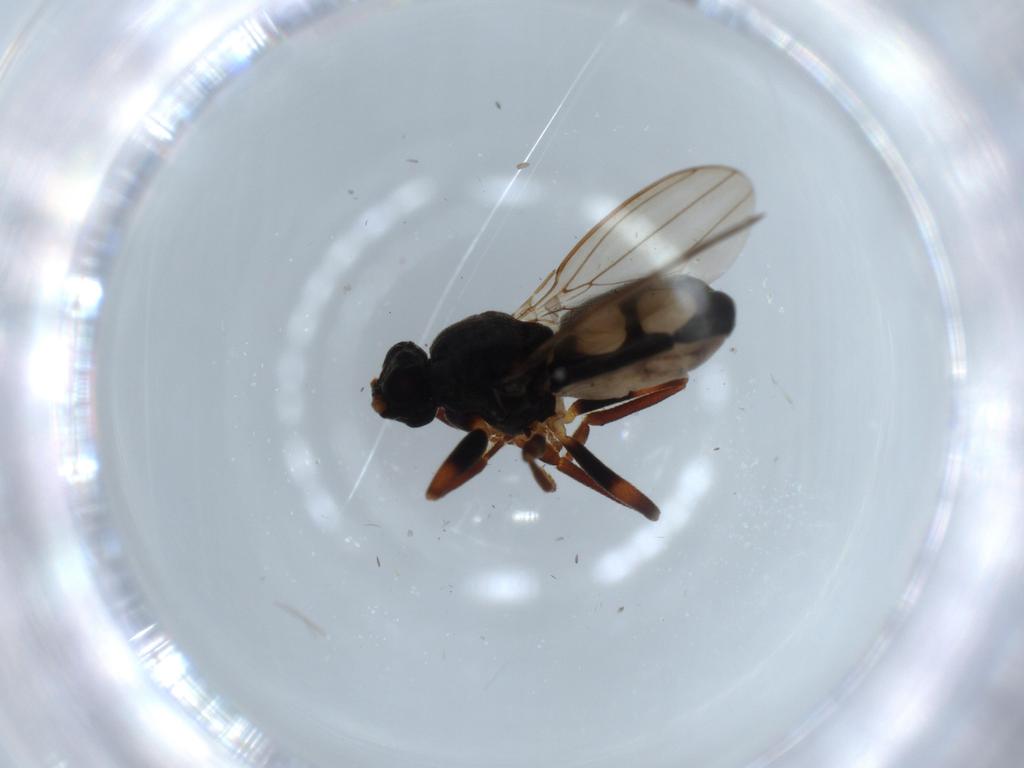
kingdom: Animalia
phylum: Arthropoda
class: Insecta
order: Diptera
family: Sphaeroceridae
